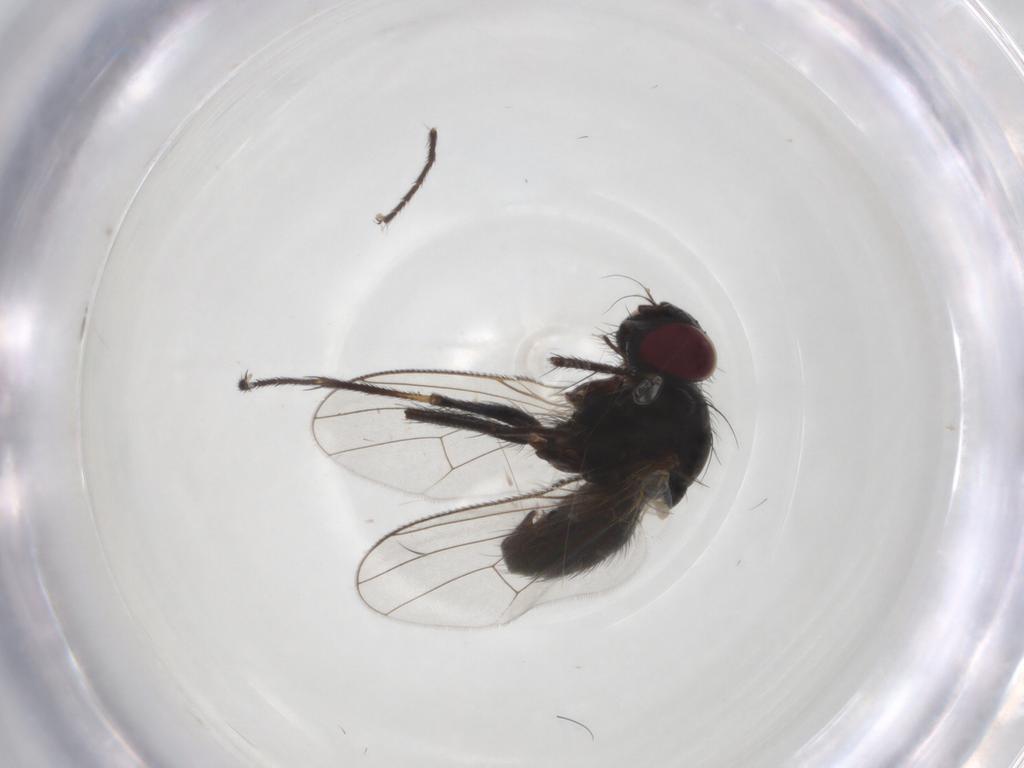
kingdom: Animalia
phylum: Arthropoda
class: Insecta
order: Diptera
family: Muscidae
